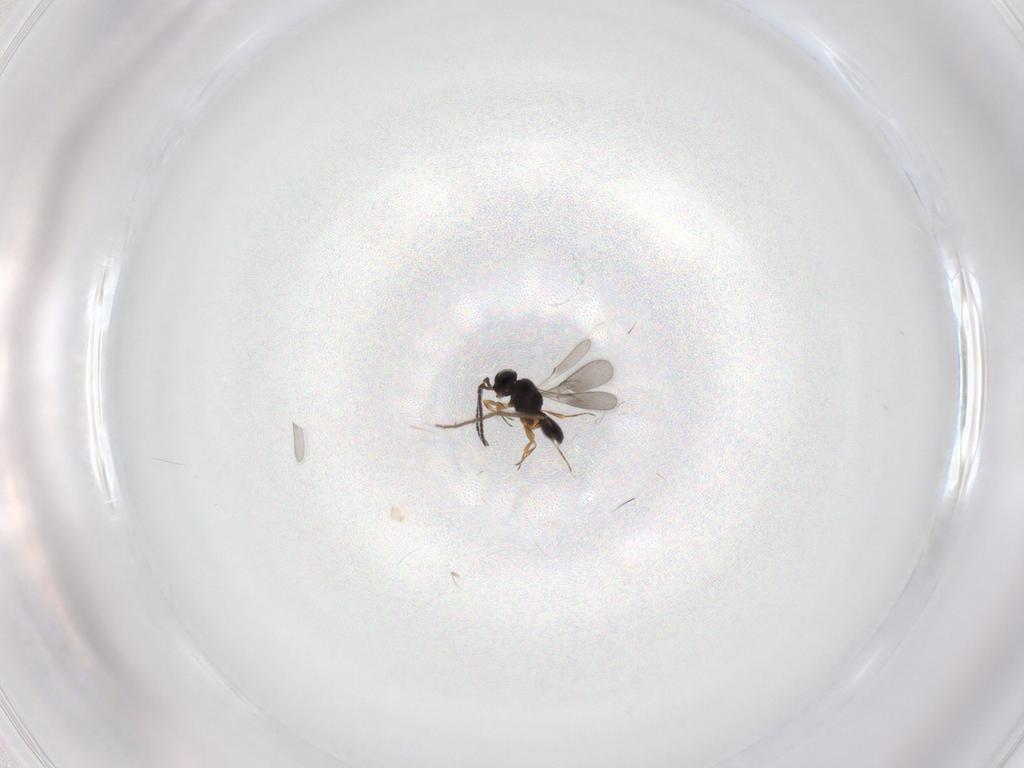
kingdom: Animalia
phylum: Arthropoda
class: Insecta
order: Hymenoptera
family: Scelionidae
